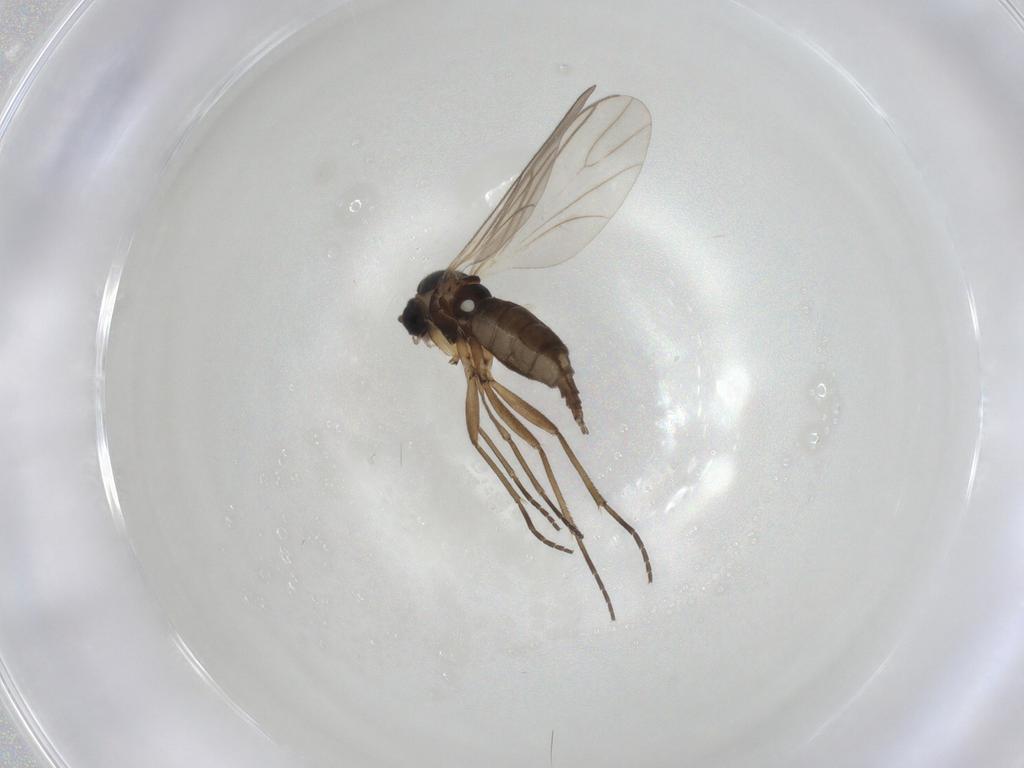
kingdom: Animalia
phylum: Arthropoda
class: Insecta
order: Diptera
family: Sciaridae
